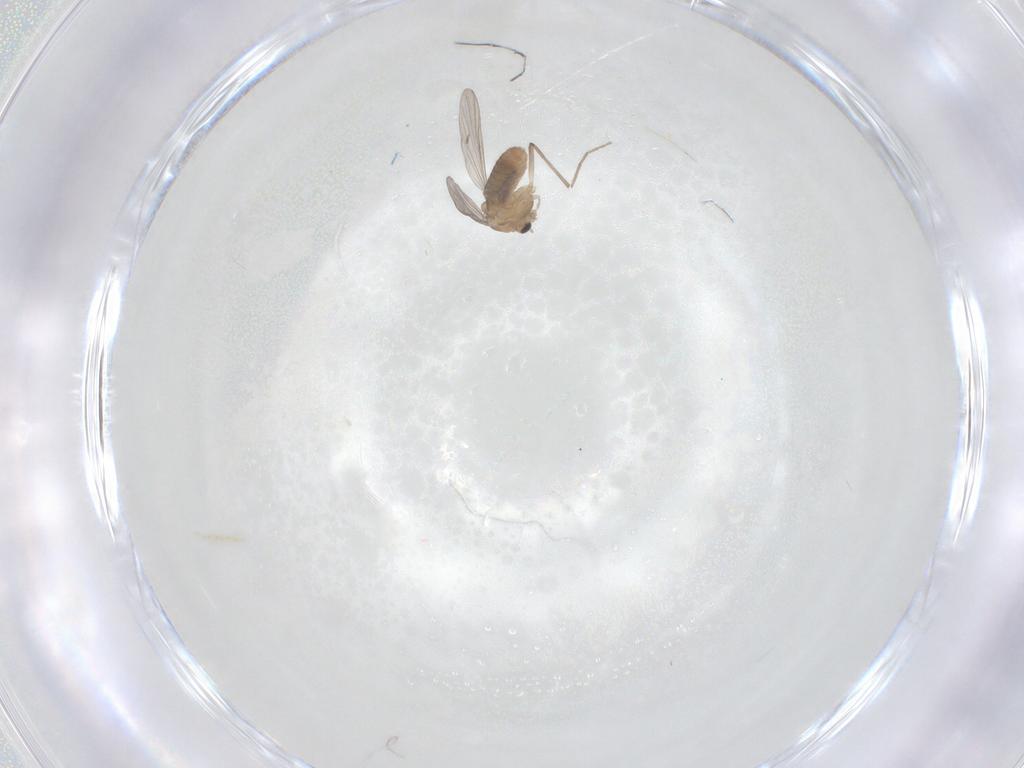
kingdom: Animalia
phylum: Arthropoda
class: Insecta
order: Diptera
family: Chironomidae
